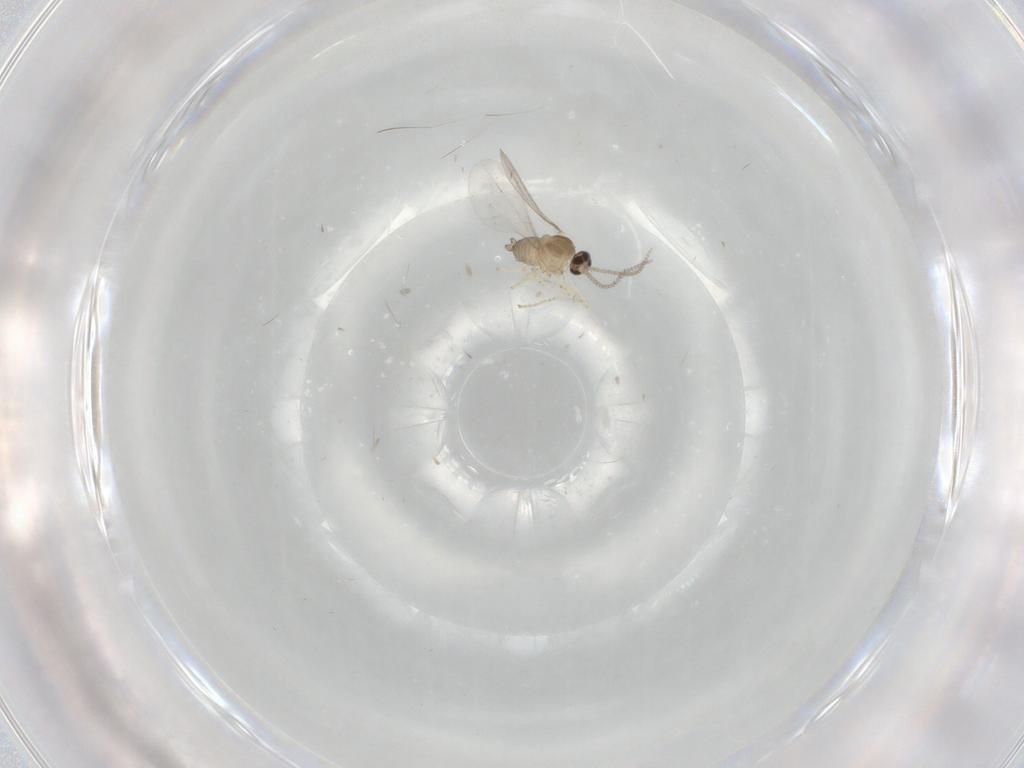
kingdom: Animalia
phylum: Arthropoda
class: Insecta
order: Diptera
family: Cecidomyiidae
